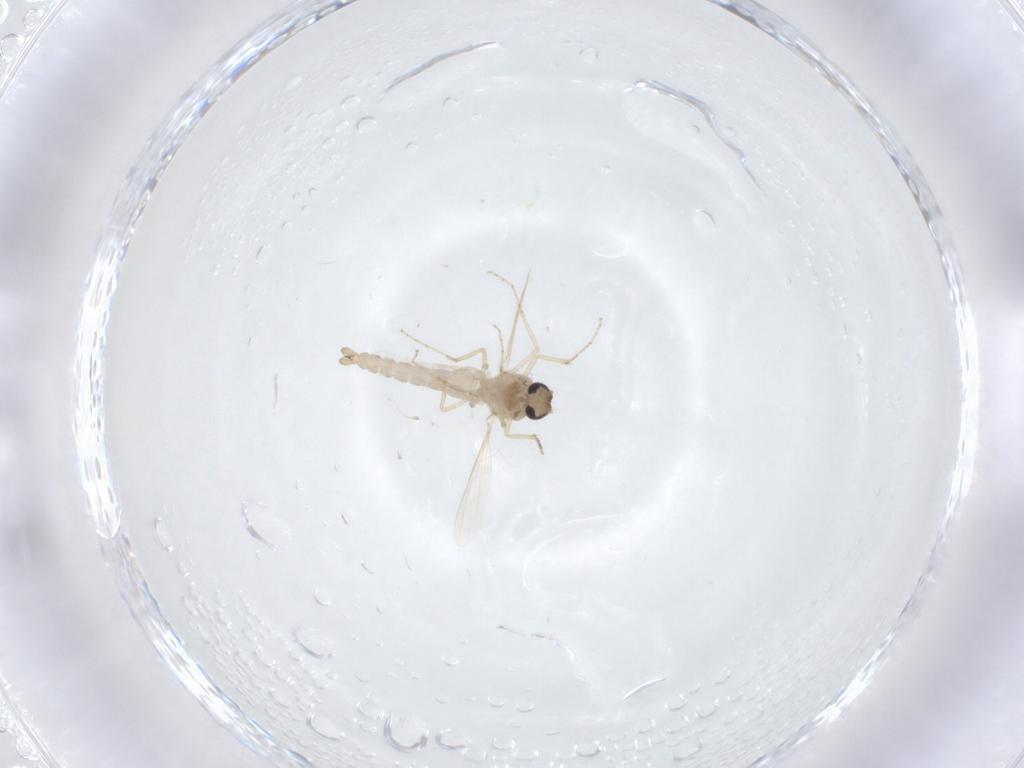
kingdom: Animalia
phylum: Arthropoda
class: Insecta
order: Diptera
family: Ceratopogonidae
